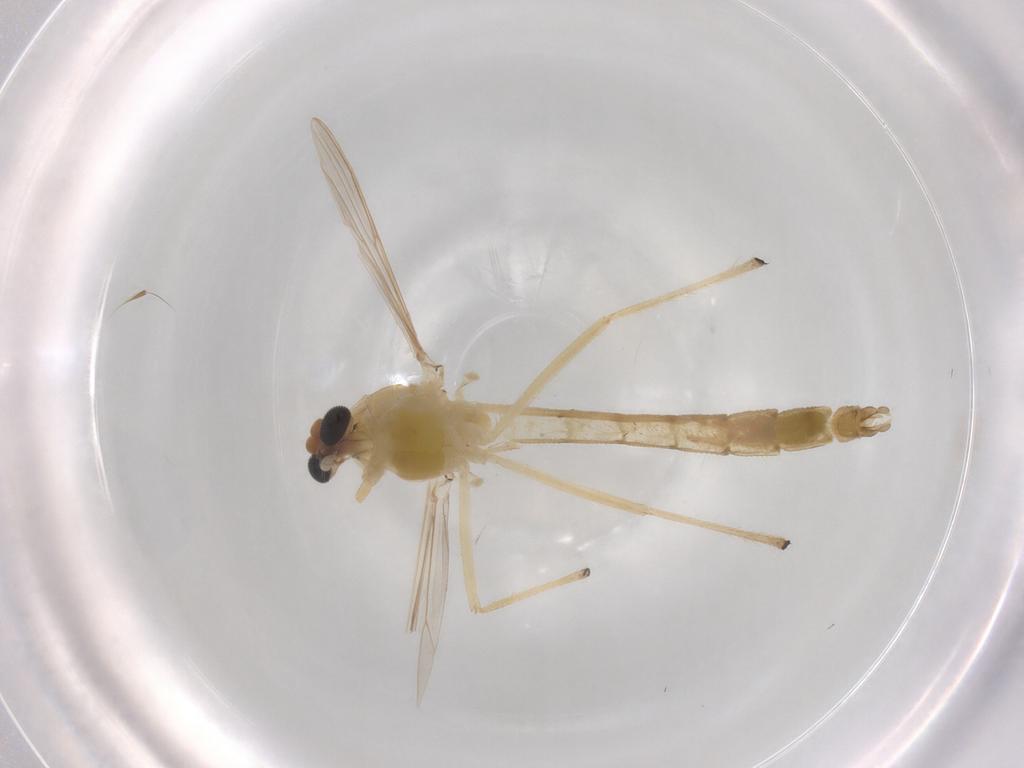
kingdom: Animalia
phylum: Arthropoda
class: Insecta
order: Diptera
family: Chironomidae
